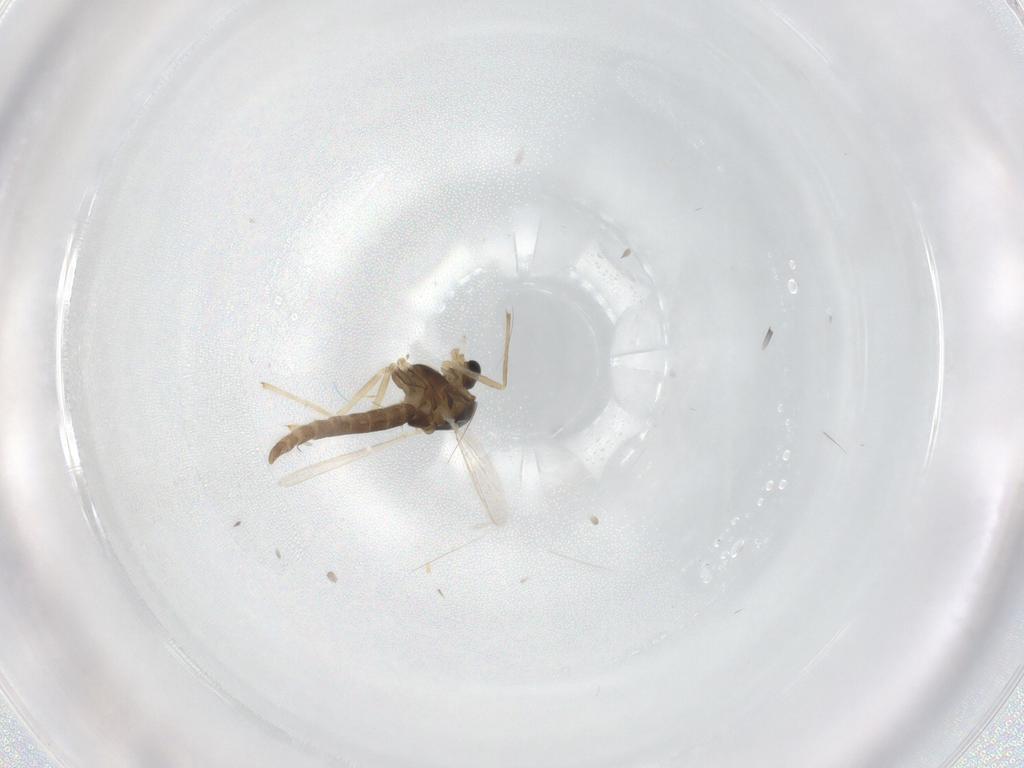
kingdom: Animalia
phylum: Arthropoda
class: Insecta
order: Diptera
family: Chironomidae
